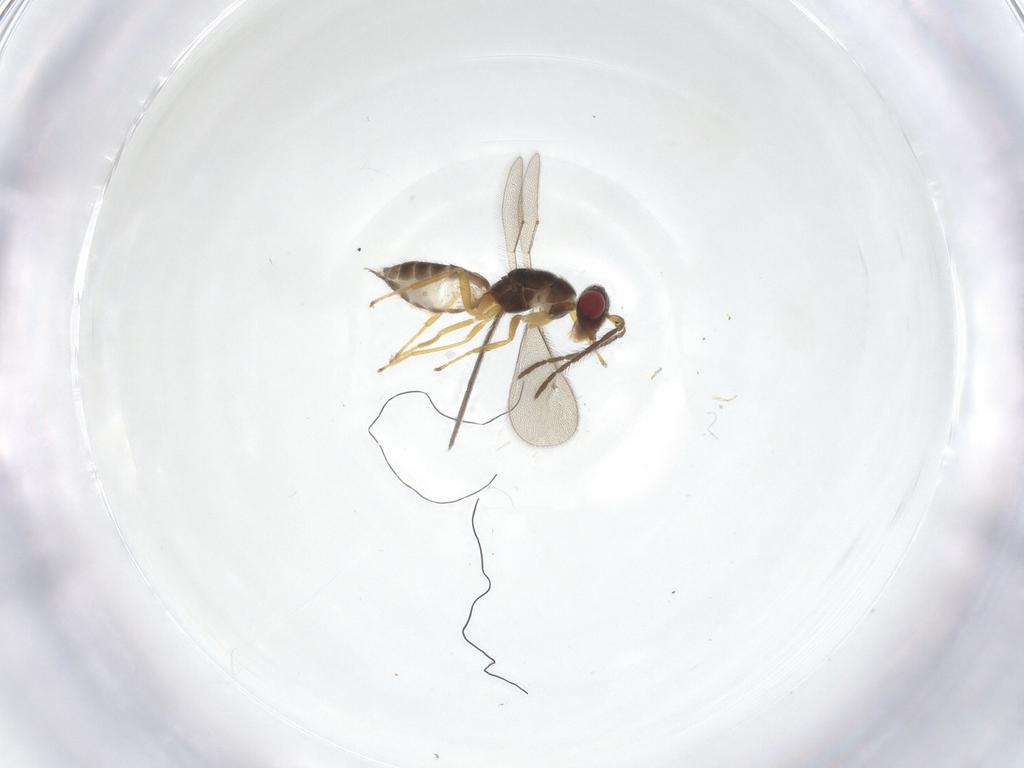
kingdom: Animalia
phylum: Arthropoda
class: Insecta
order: Hymenoptera
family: Eulophidae
